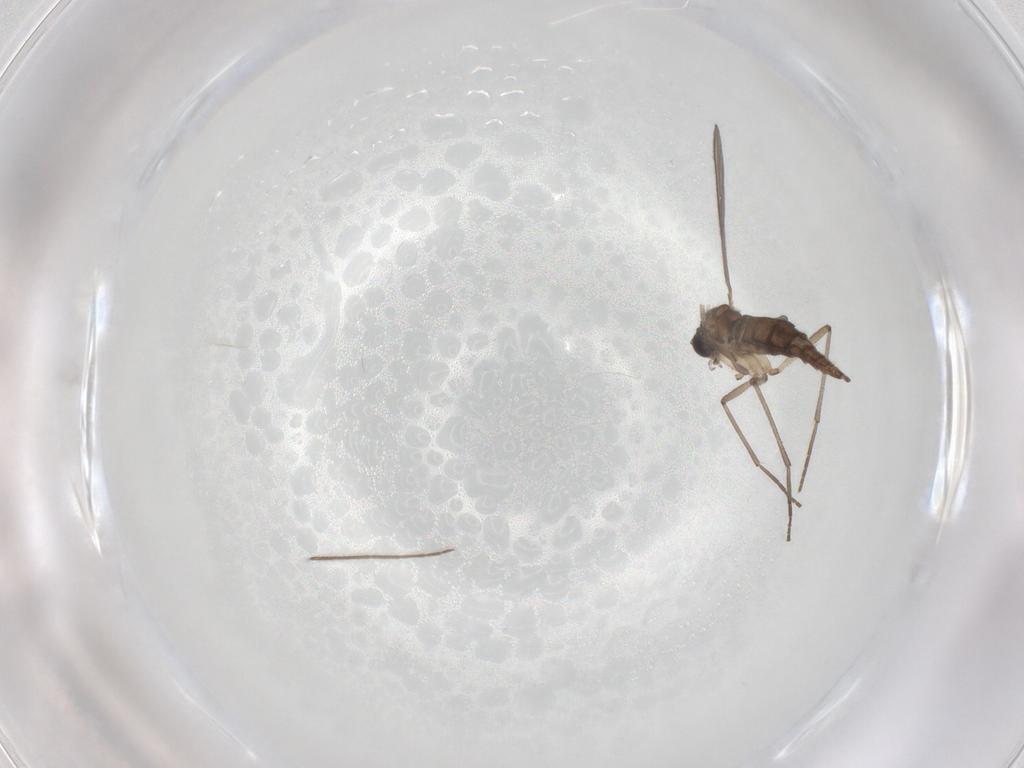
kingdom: Animalia
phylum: Arthropoda
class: Insecta
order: Diptera
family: Sciaridae
